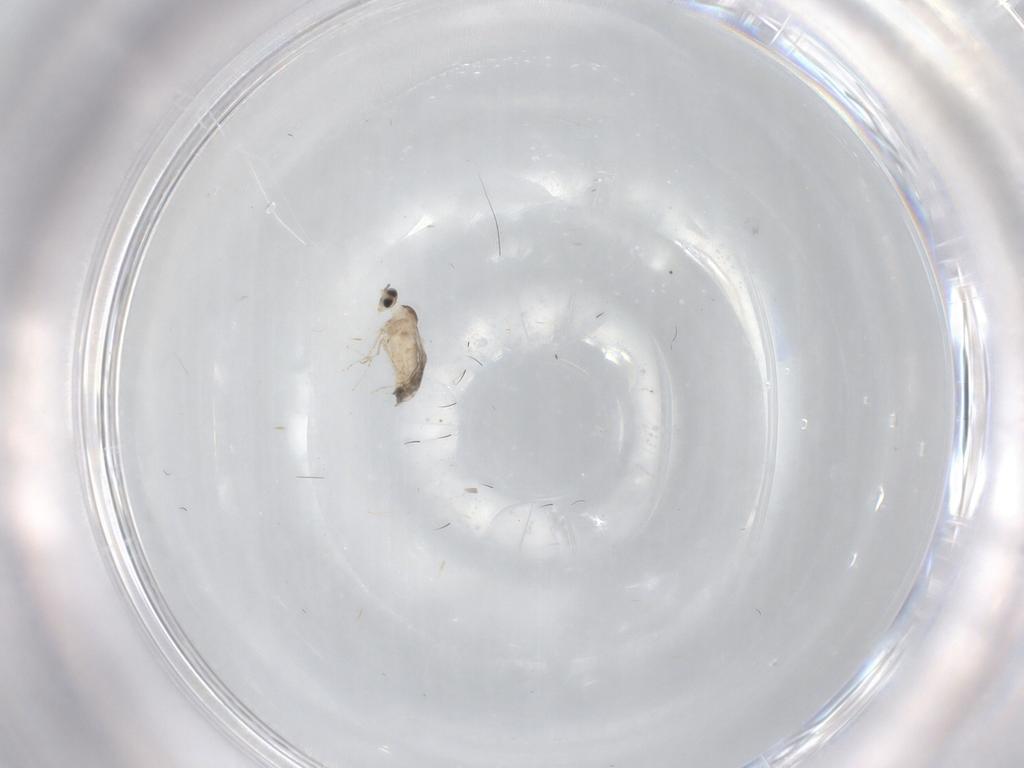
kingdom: Animalia
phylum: Arthropoda
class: Insecta
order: Diptera
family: Cecidomyiidae
